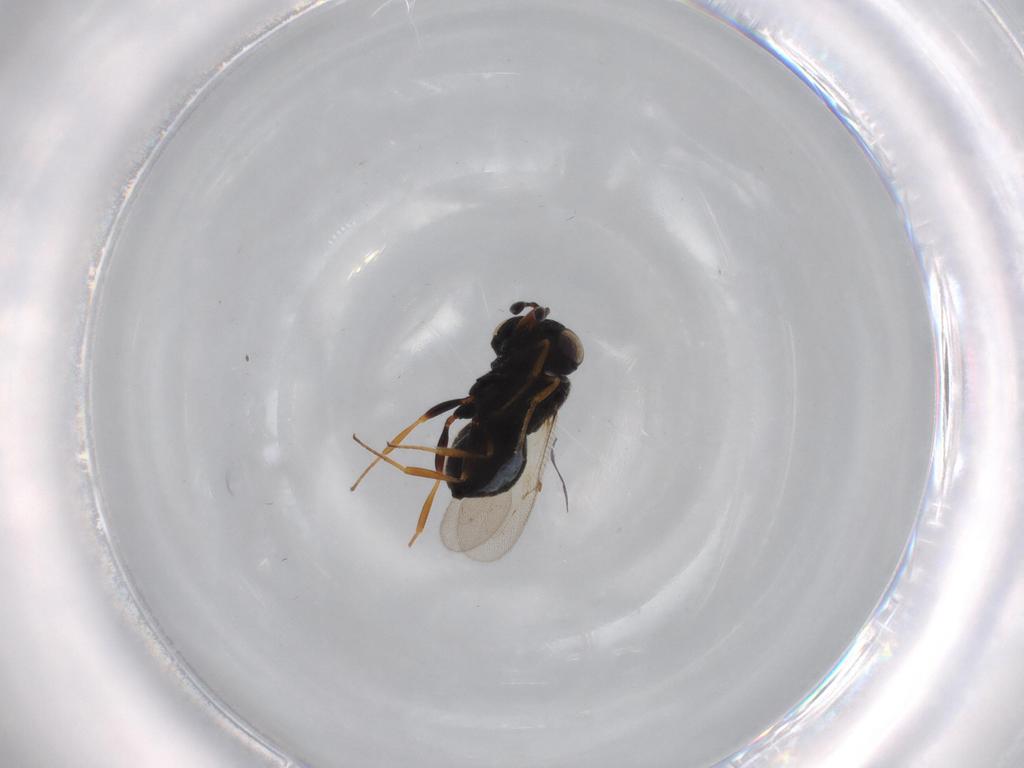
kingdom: Animalia
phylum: Arthropoda
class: Insecta
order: Hymenoptera
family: Scelionidae
